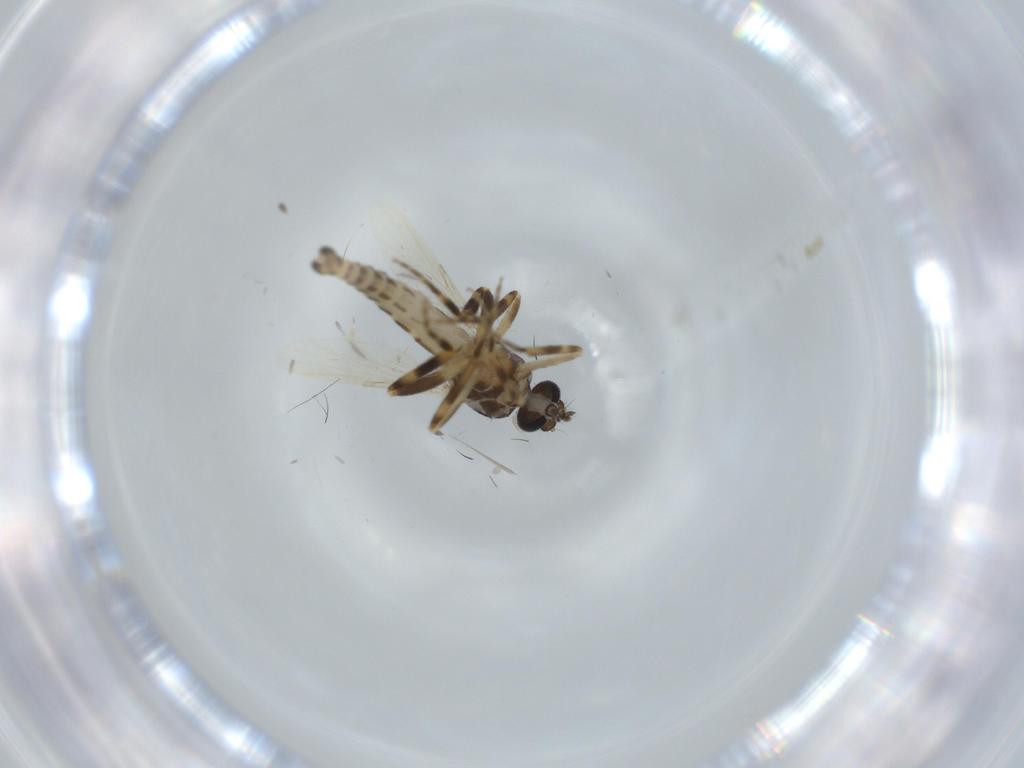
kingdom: Animalia
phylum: Arthropoda
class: Insecta
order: Diptera
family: Ceratopogonidae
